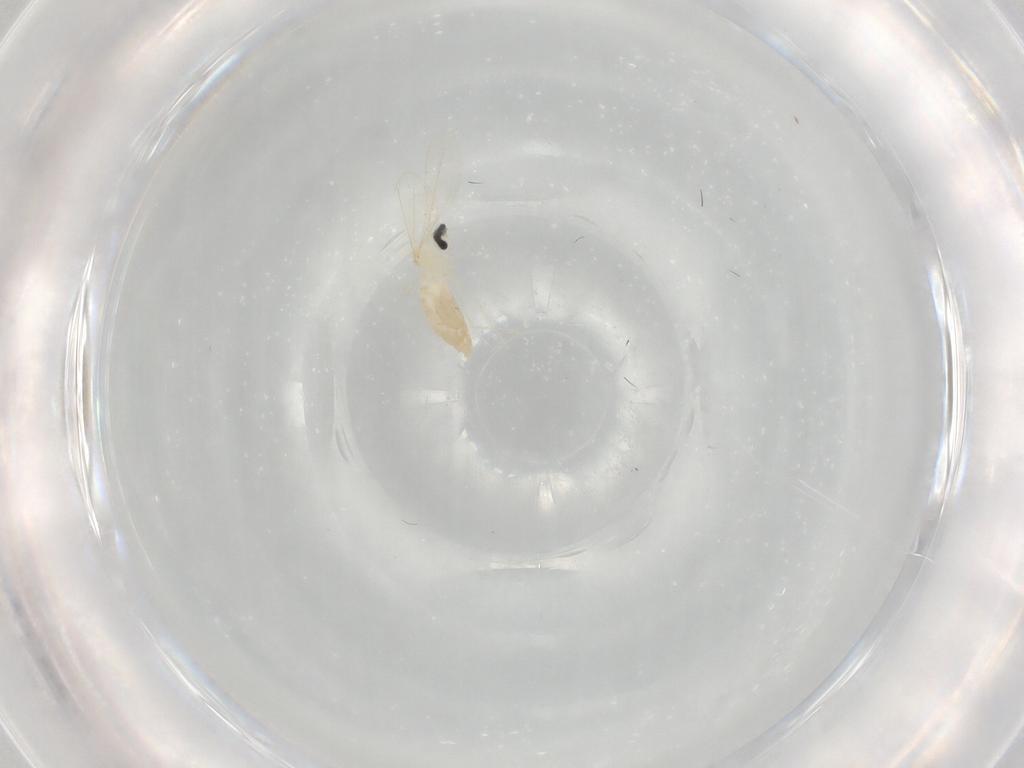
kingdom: Animalia
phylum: Arthropoda
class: Insecta
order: Diptera
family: Cecidomyiidae
